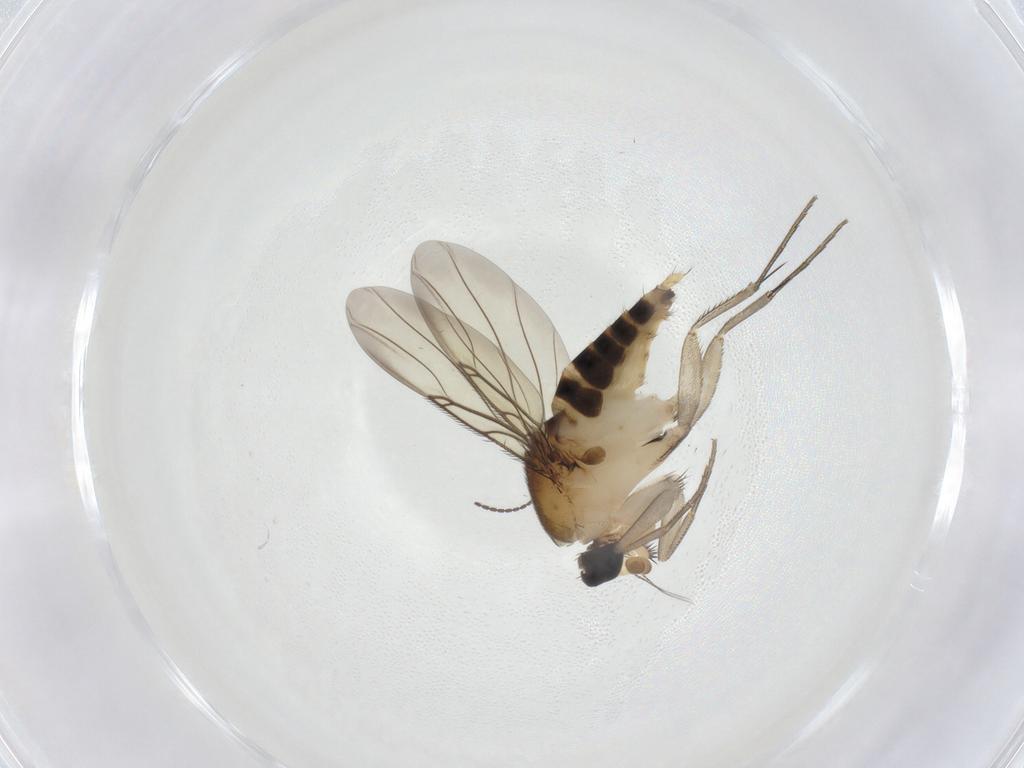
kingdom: Animalia
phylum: Arthropoda
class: Insecta
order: Diptera
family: Phoridae
